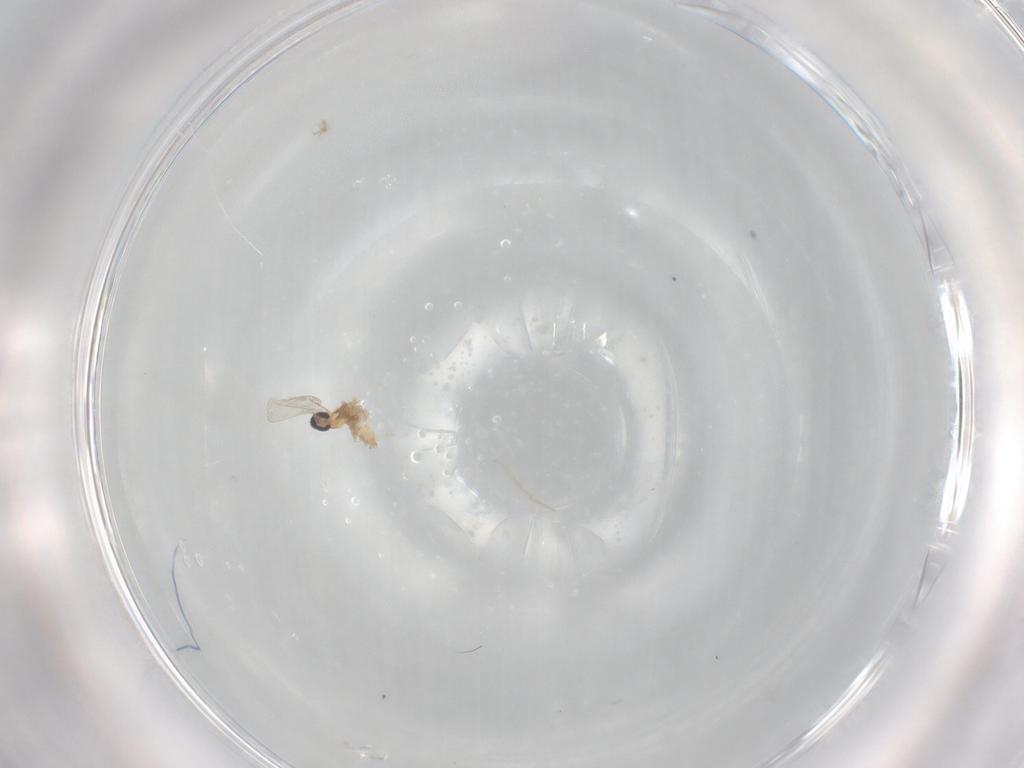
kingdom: Animalia
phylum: Arthropoda
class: Insecta
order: Diptera
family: Cecidomyiidae
